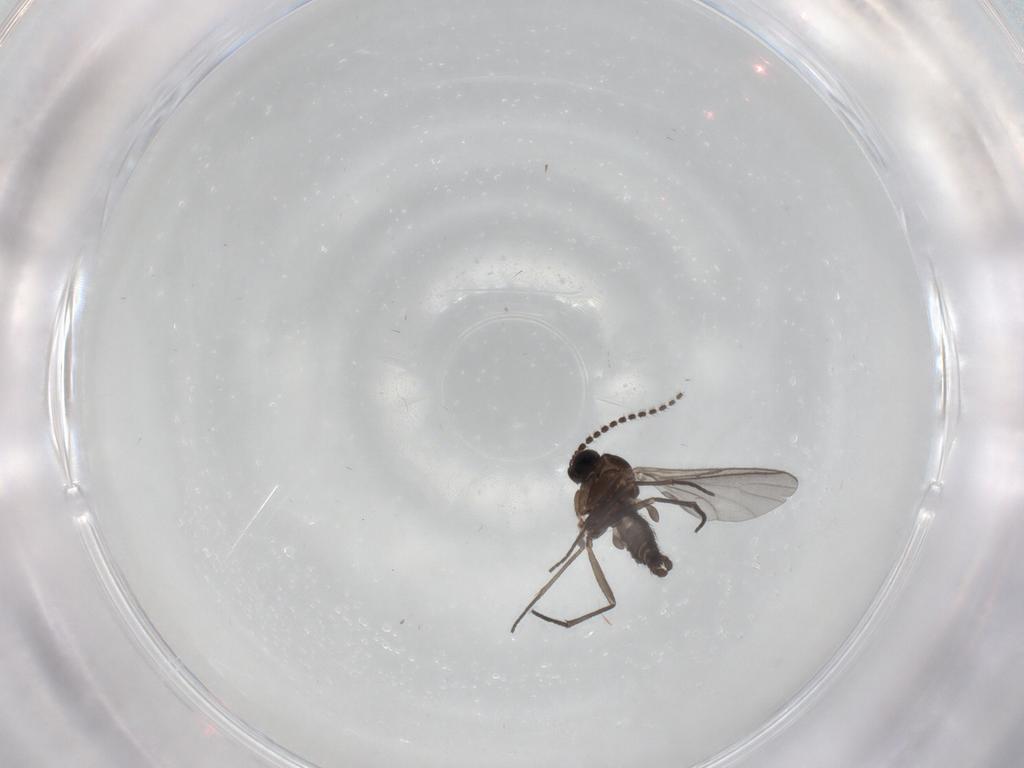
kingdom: Animalia
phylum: Arthropoda
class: Insecta
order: Diptera
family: Sciaridae
